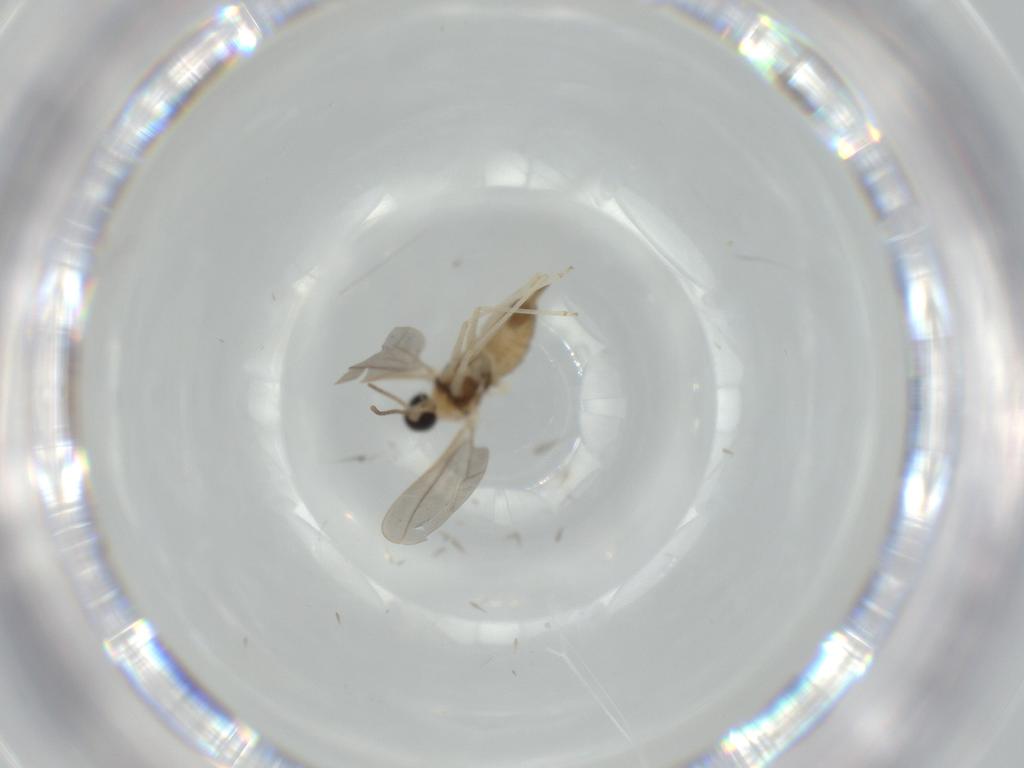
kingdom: Animalia
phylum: Arthropoda
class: Insecta
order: Diptera
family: Cecidomyiidae
